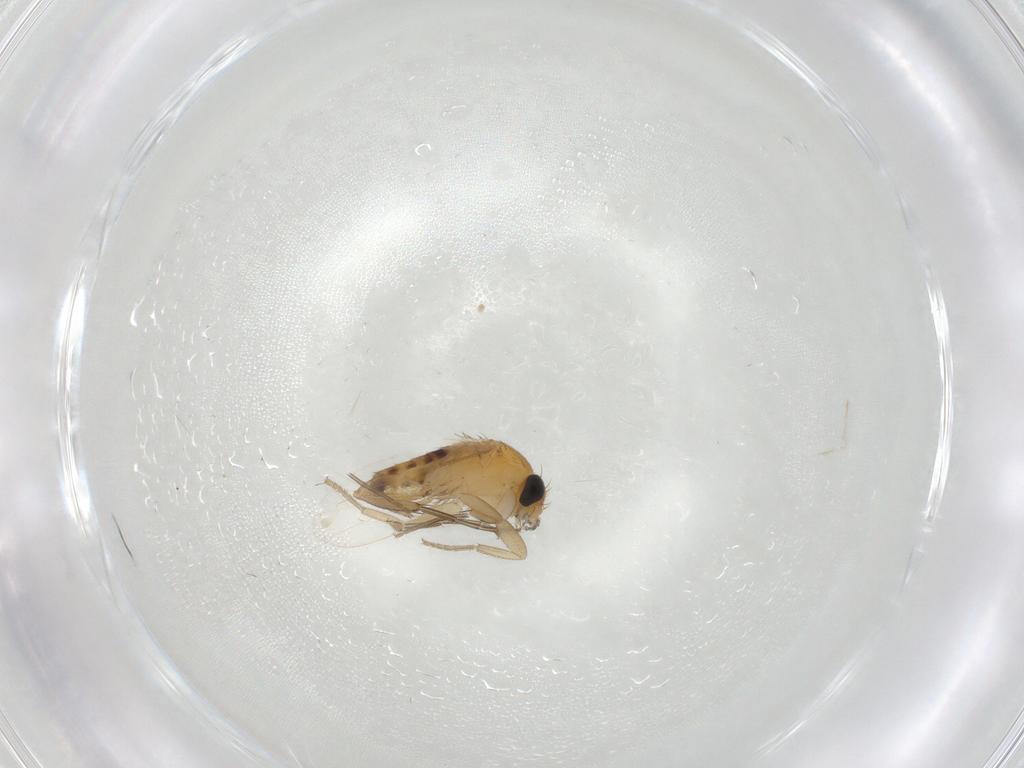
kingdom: Animalia
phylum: Arthropoda
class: Insecta
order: Diptera
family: Phoridae
